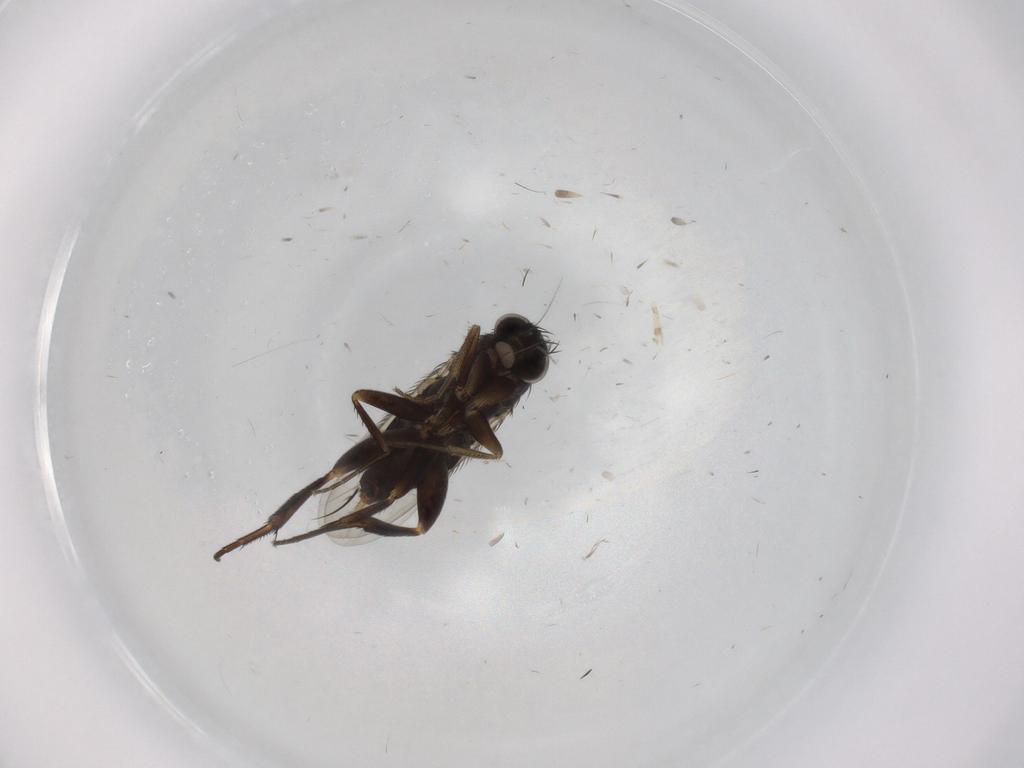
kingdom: Animalia
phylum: Arthropoda
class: Insecta
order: Diptera
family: Phoridae
